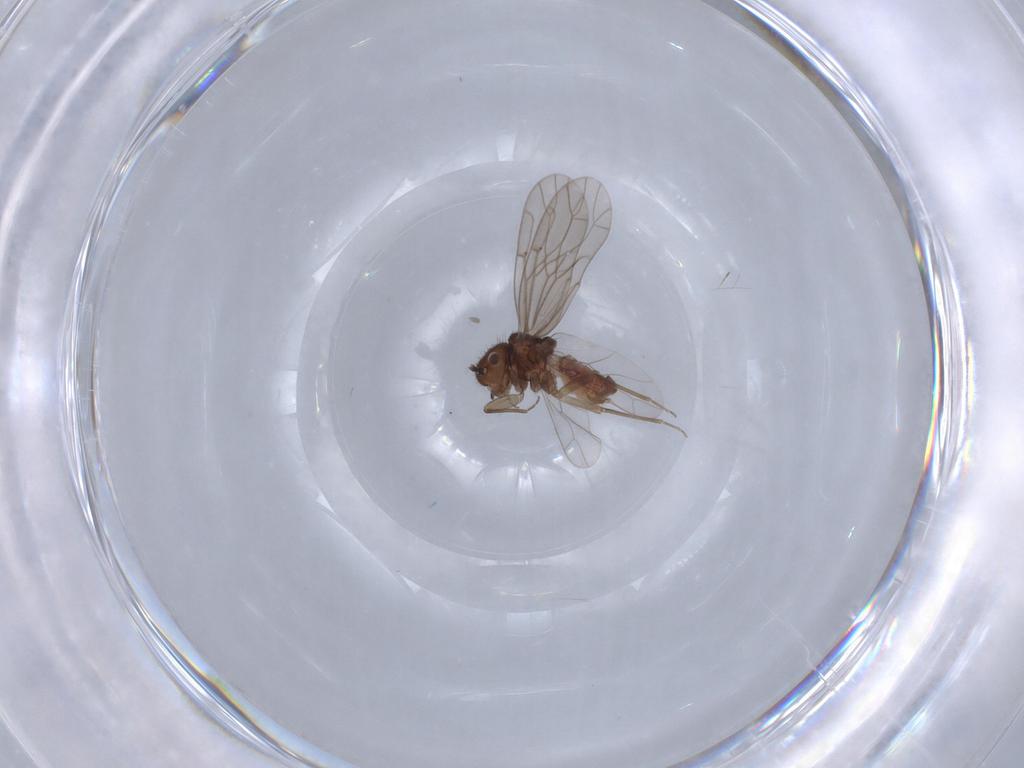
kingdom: Animalia
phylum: Arthropoda
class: Insecta
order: Psocodea
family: Ectopsocidae
